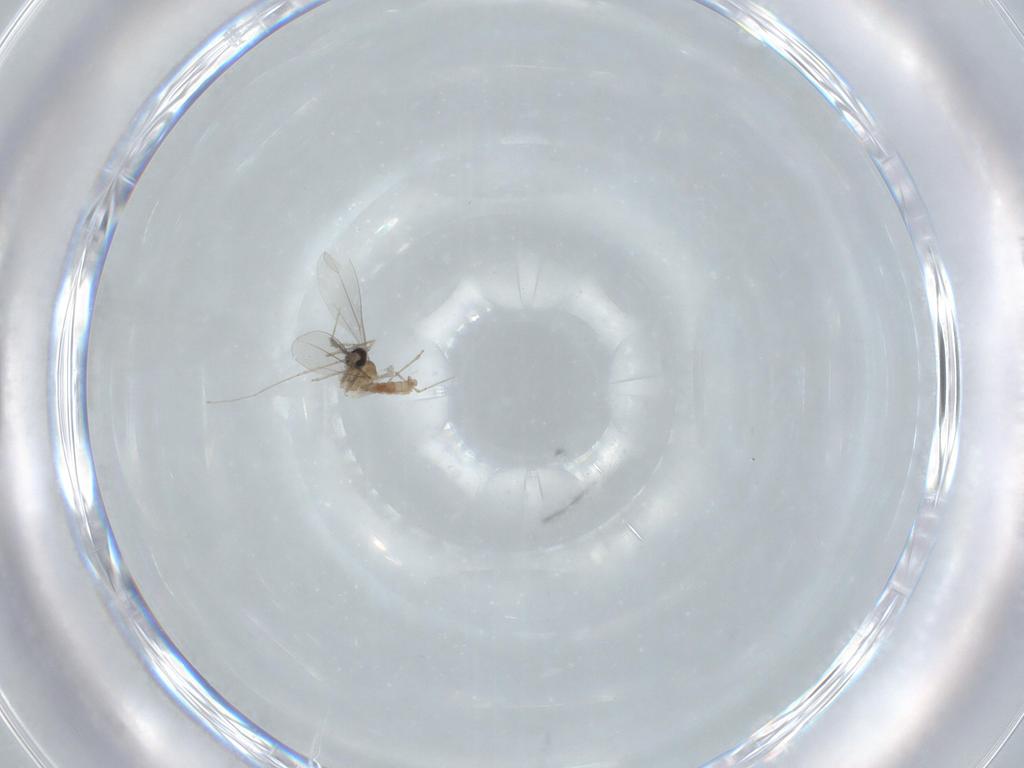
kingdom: Animalia
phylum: Arthropoda
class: Insecta
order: Diptera
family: Cecidomyiidae
